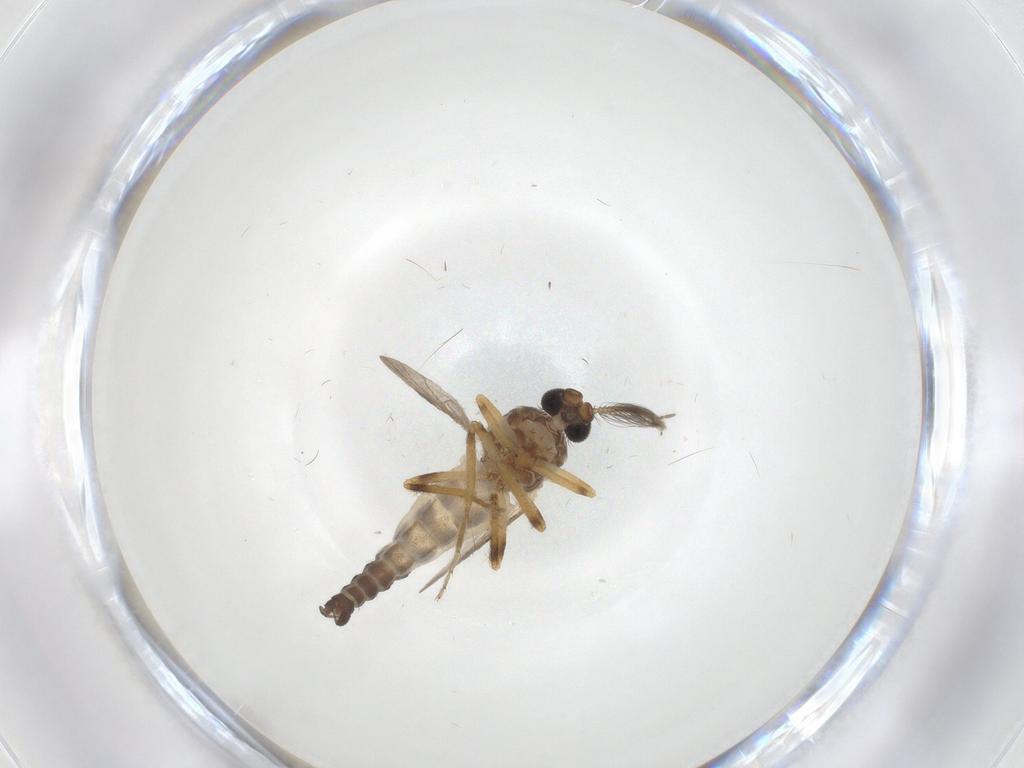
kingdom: Animalia
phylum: Arthropoda
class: Insecta
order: Diptera
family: Ceratopogonidae
